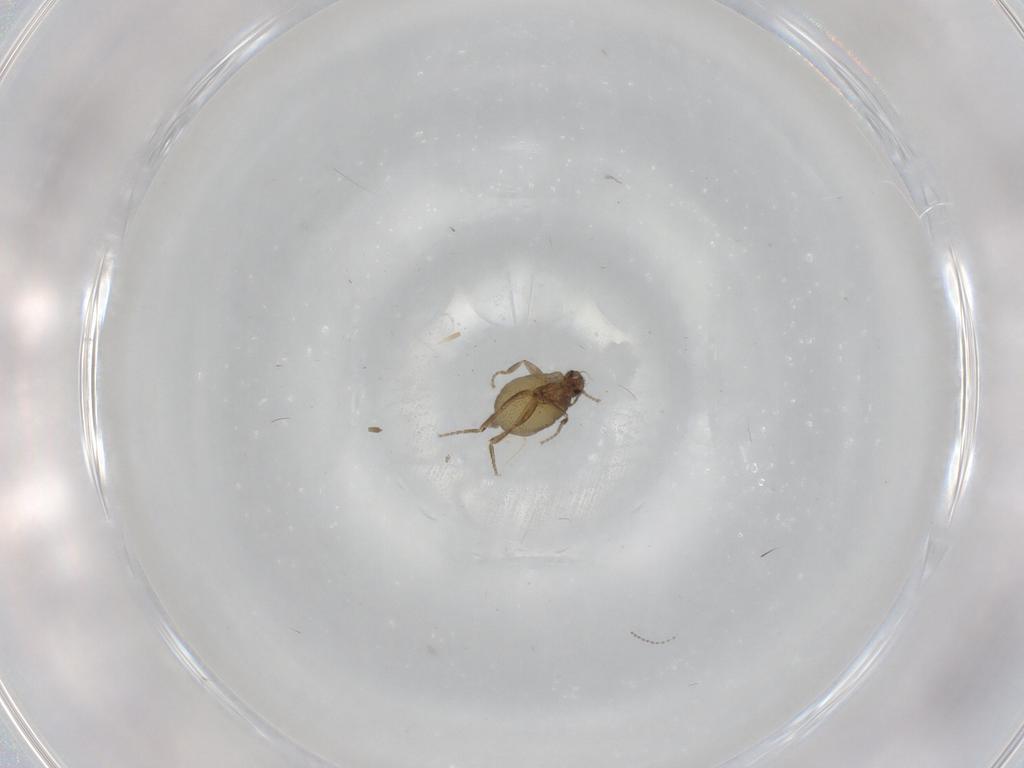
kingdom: Animalia
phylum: Arthropoda
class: Insecta
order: Diptera
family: Phoridae
